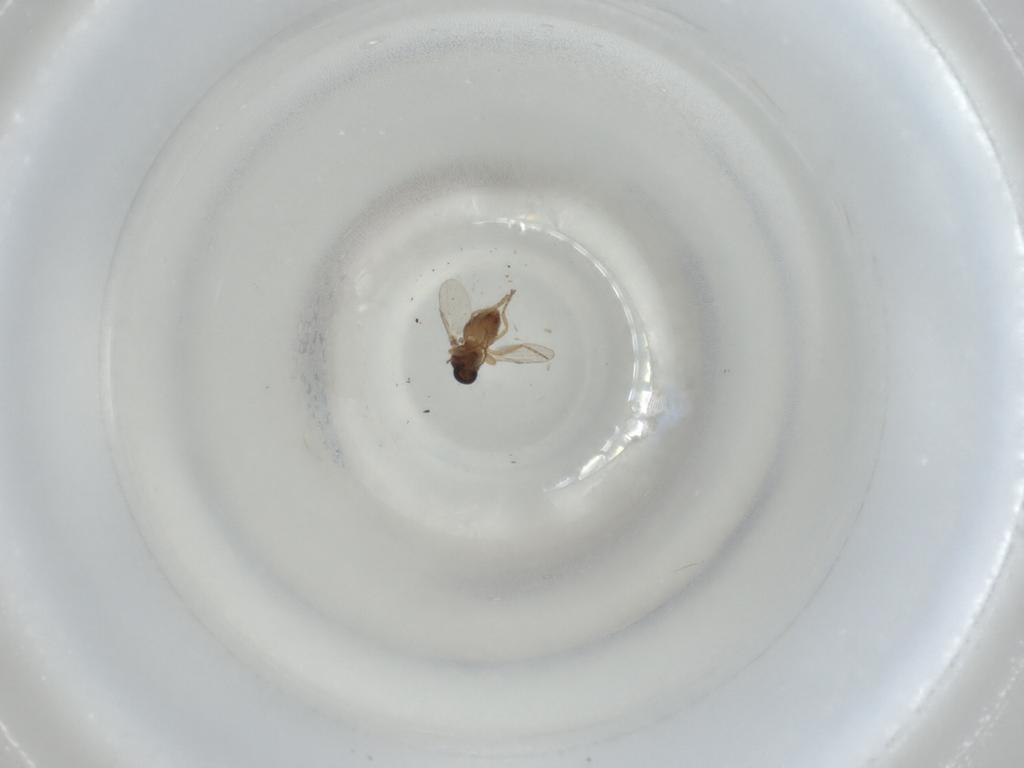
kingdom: Animalia
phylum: Arthropoda
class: Insecta
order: Diptera
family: Ceratopogonidae
